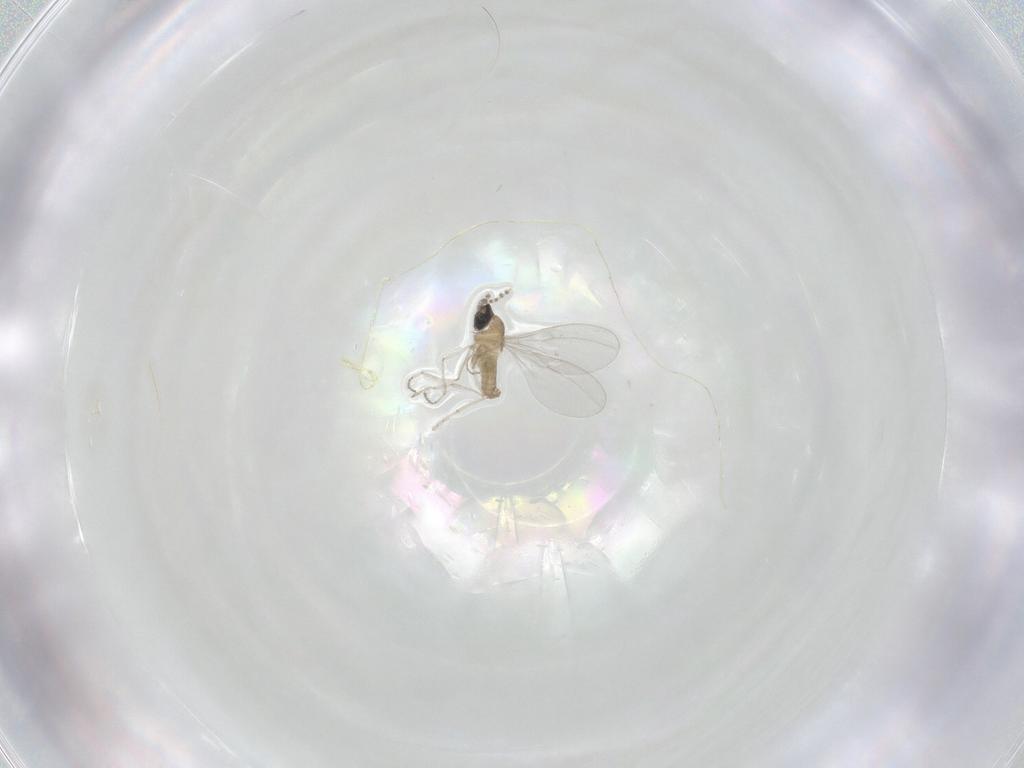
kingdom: Animalia
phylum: Arthropoda
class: Insecta
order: Diptera
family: Cecidomyiidae
